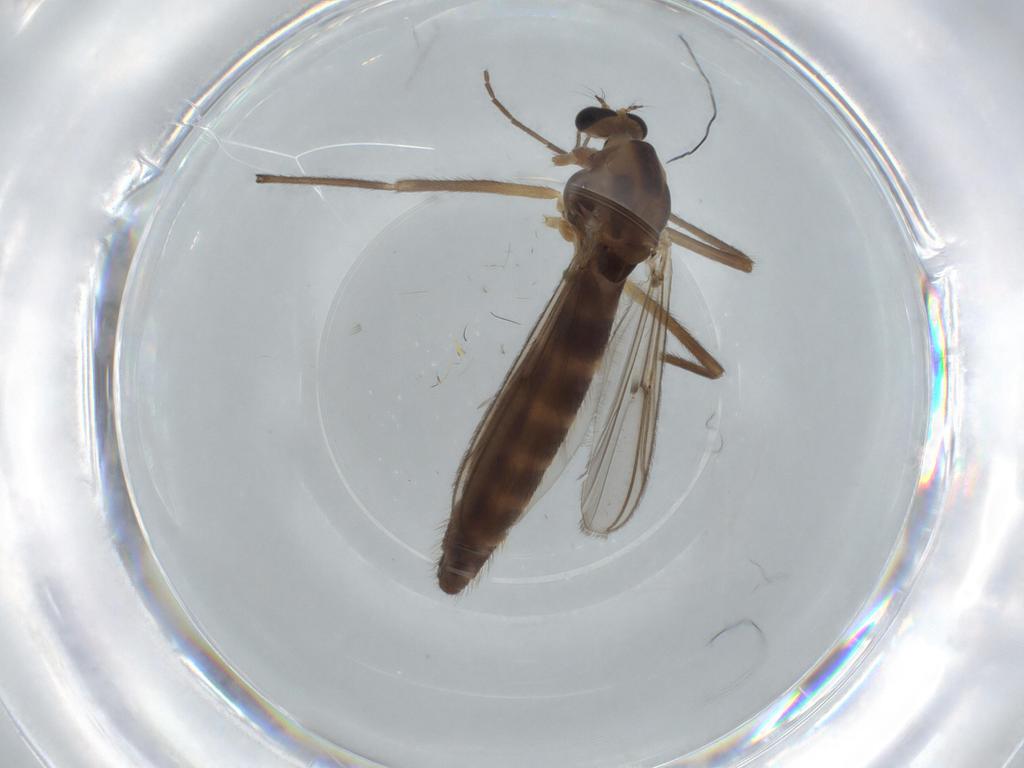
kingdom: Animalia
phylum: Arthropoda
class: Insecta
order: Diptera
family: Chironomidae
